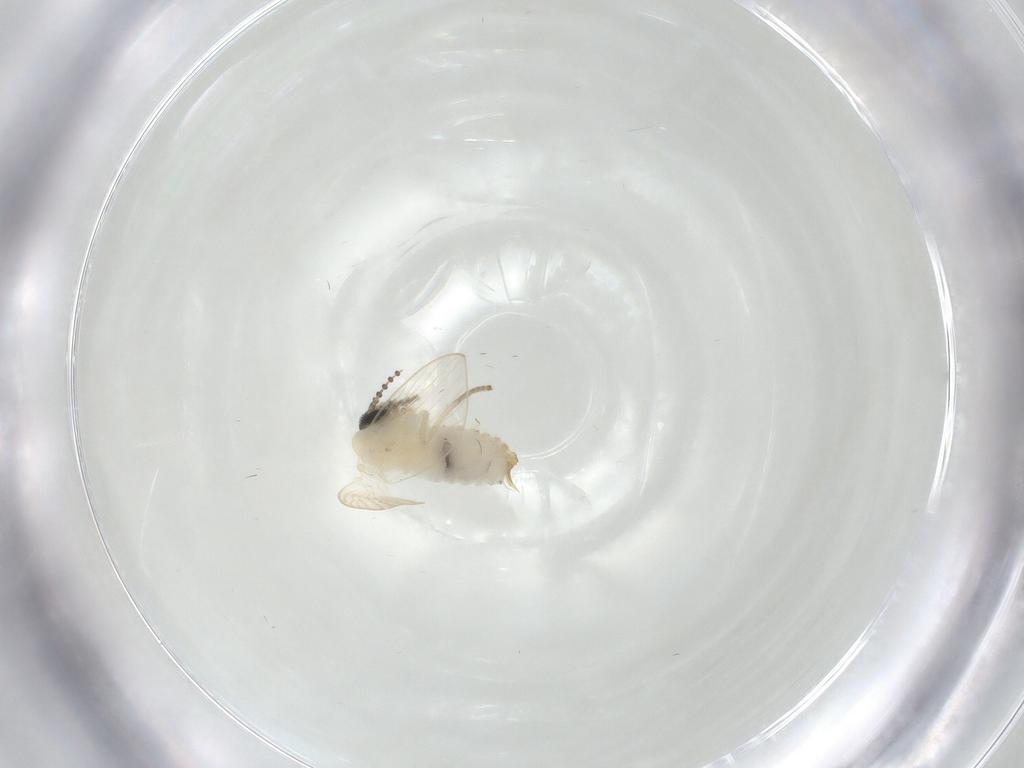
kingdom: Animalia
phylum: Arthropoda
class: Insecta
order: Diptera
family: Psychodidae
